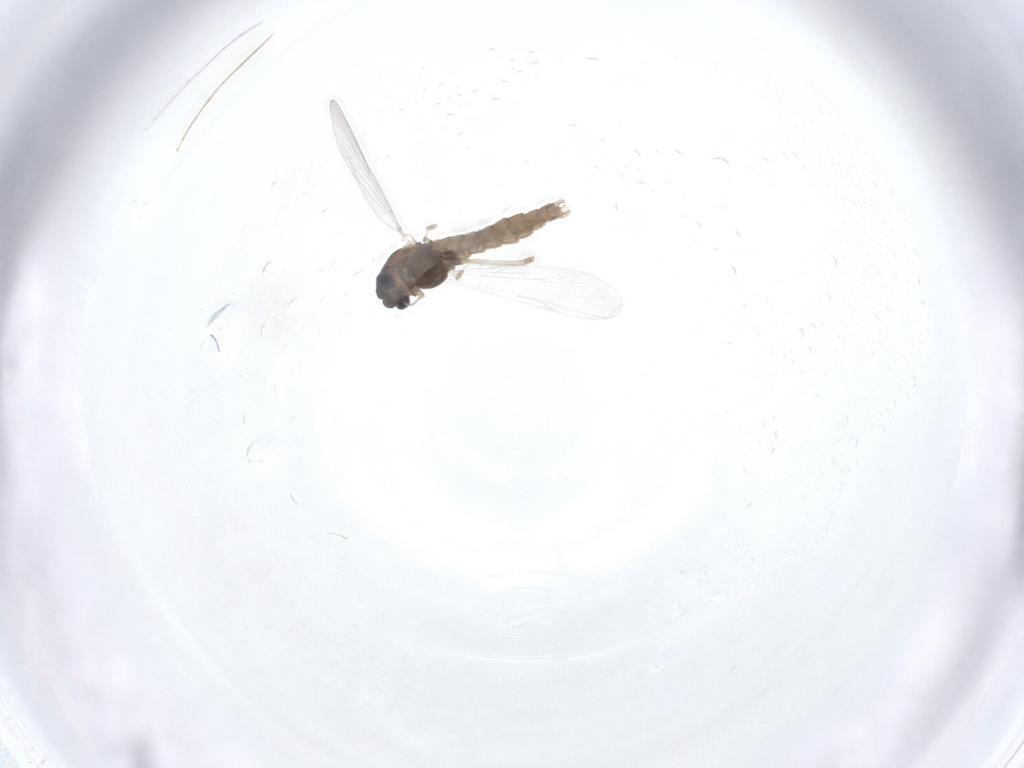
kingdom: Animalia
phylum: Arthropoda
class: Insecta
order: Diptera
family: Chironomidae
